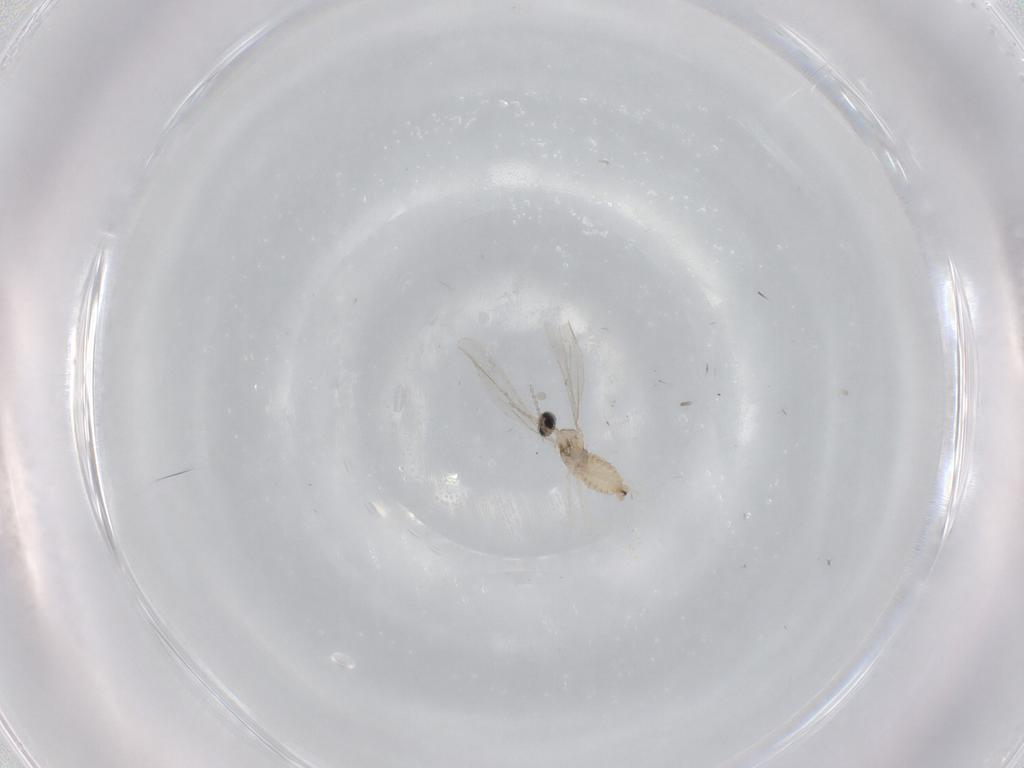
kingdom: Animalia
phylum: Arthropoda
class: Insecta
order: Diptera
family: Cecidomyiidae
